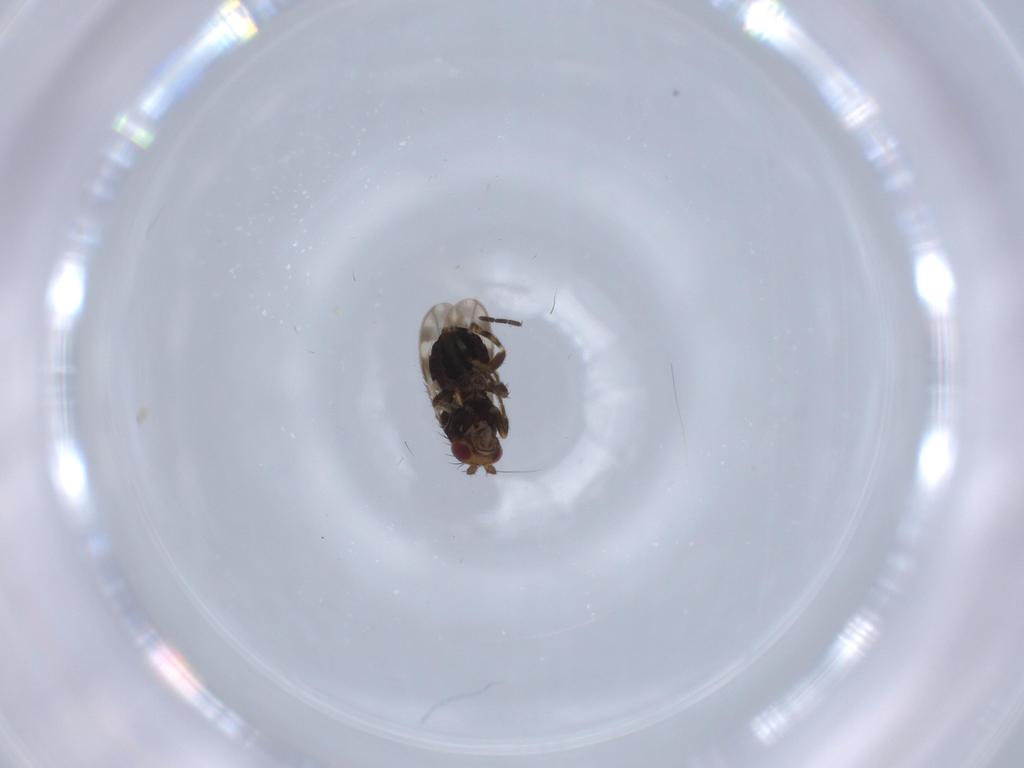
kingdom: Animalia
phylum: Arthropoda
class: Insecta
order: Diptera
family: Sphaeroceridae
